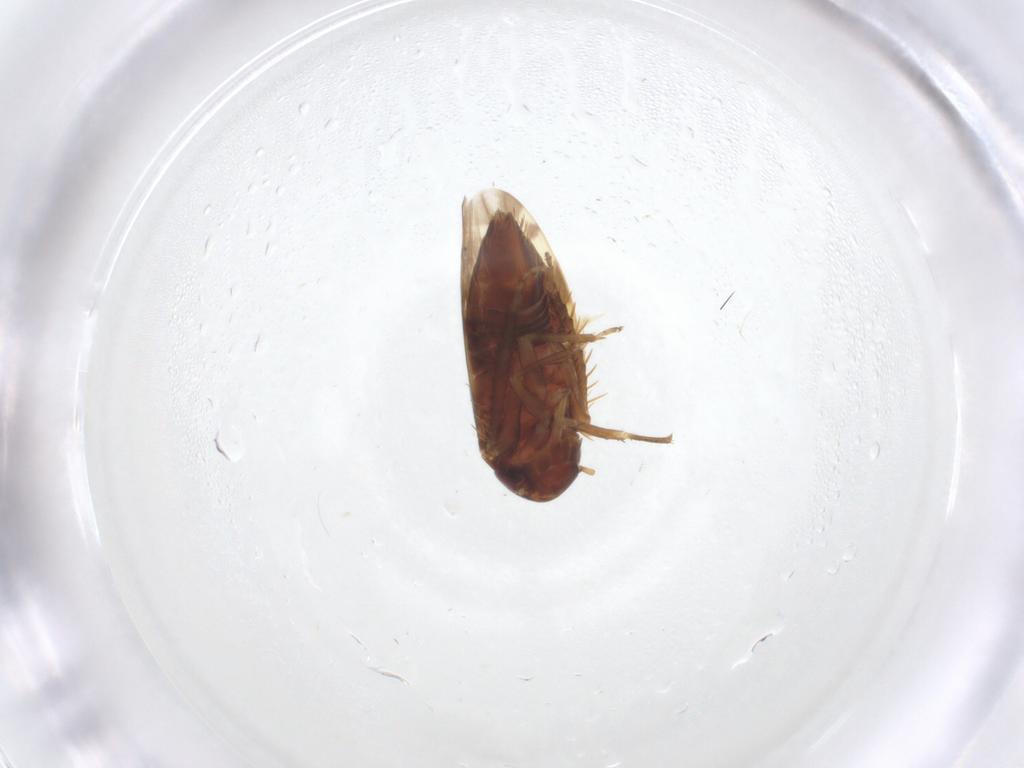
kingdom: Animalia
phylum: Arthropoda
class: Insecta
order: Hemiptera
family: Cicadellidae
